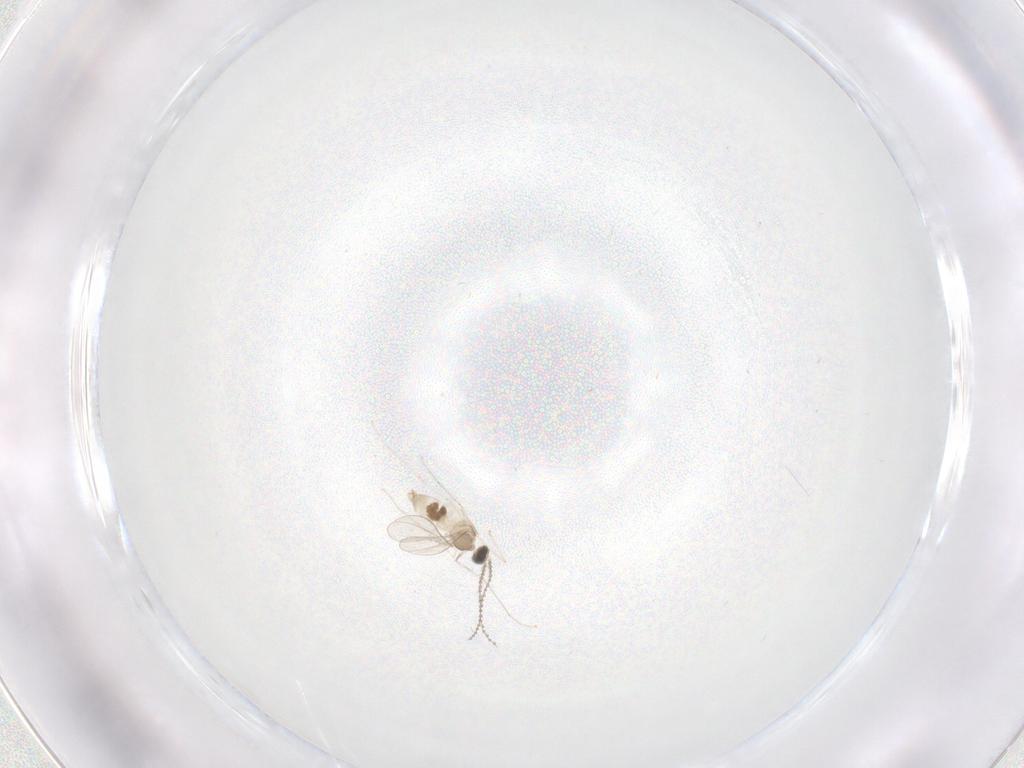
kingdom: Animalia
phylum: Arthropoda
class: Insecta
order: Diptera
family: Cecidomyiidae
